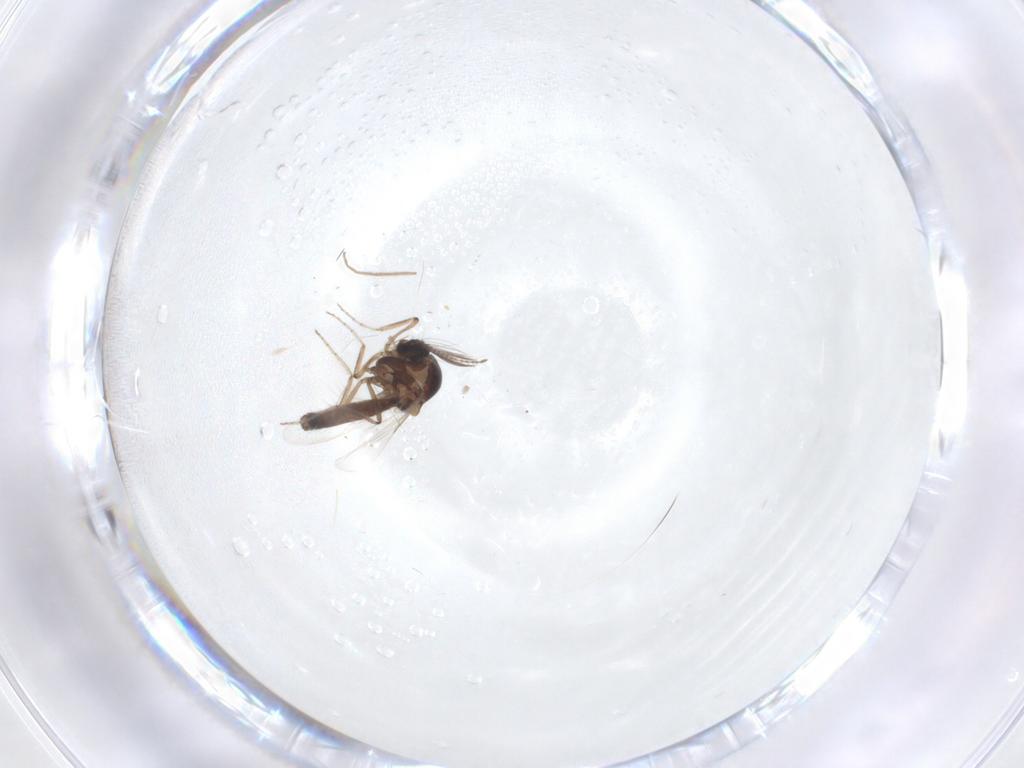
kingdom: Animalia
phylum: Arthropoda
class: Insecta
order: Diptera
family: Ceratopogonidae
